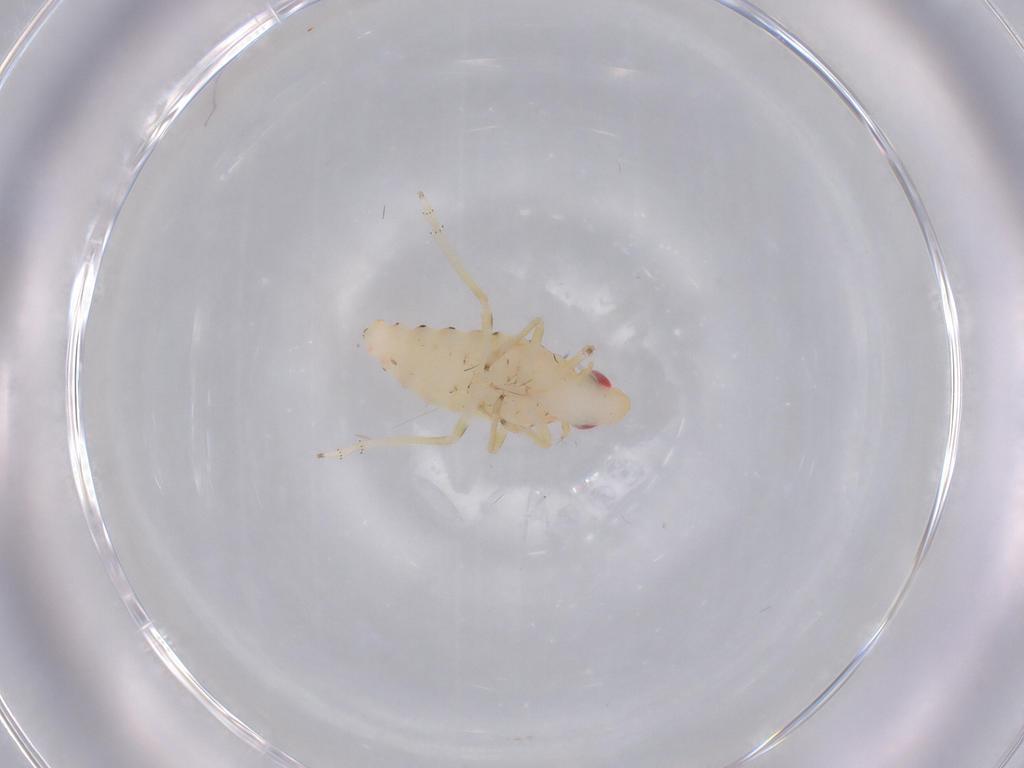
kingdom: Animalia
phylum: Arthropoda
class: Insecta
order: Hemiptera
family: Tropiduchidae
